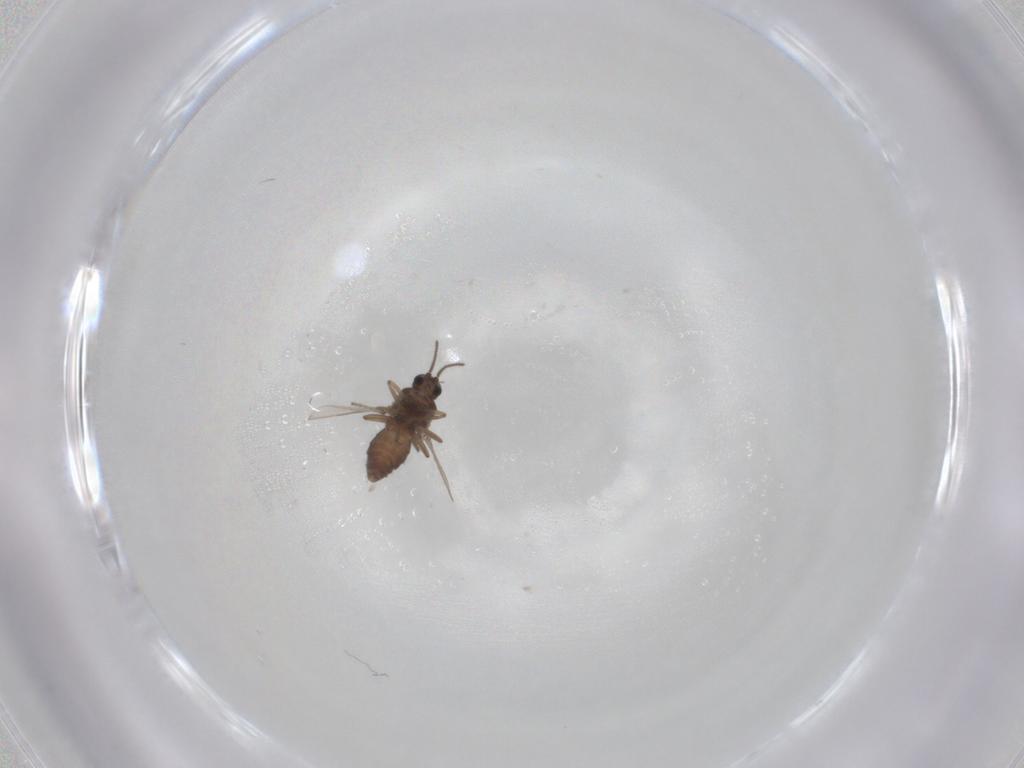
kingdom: Animalia
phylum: Arthropoda
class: Insecta
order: Diptera
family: Ceratopogonidae
